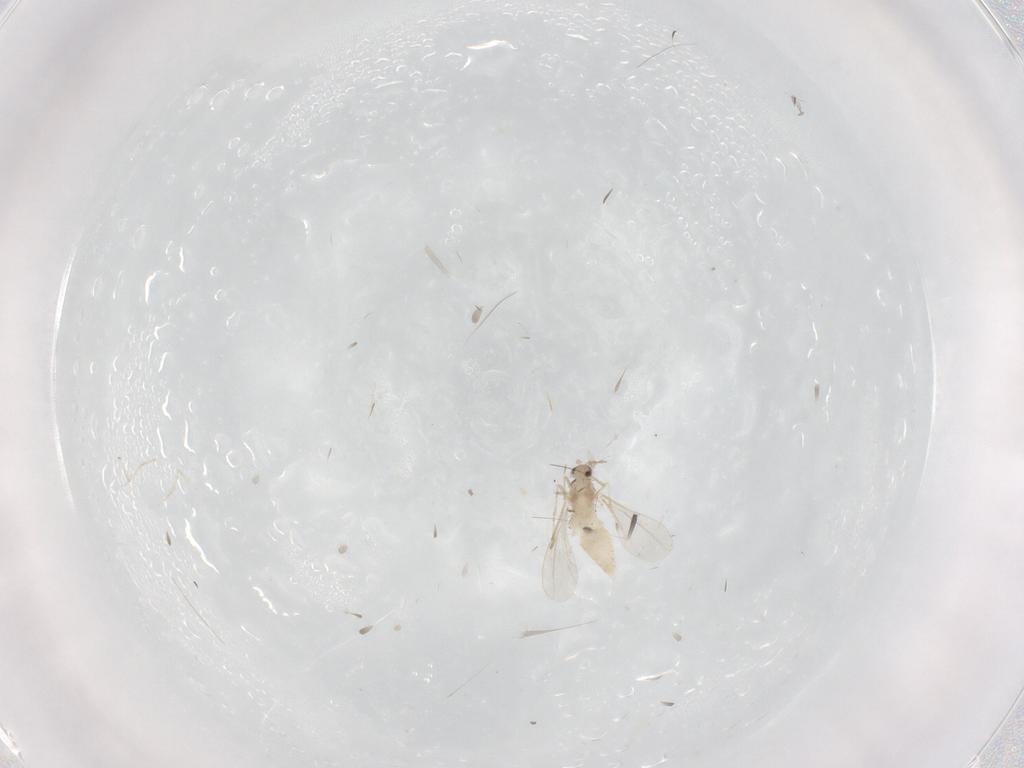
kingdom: Animalia
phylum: Arthropoda
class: Insecta
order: Diptera
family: Cecidomyiidae
